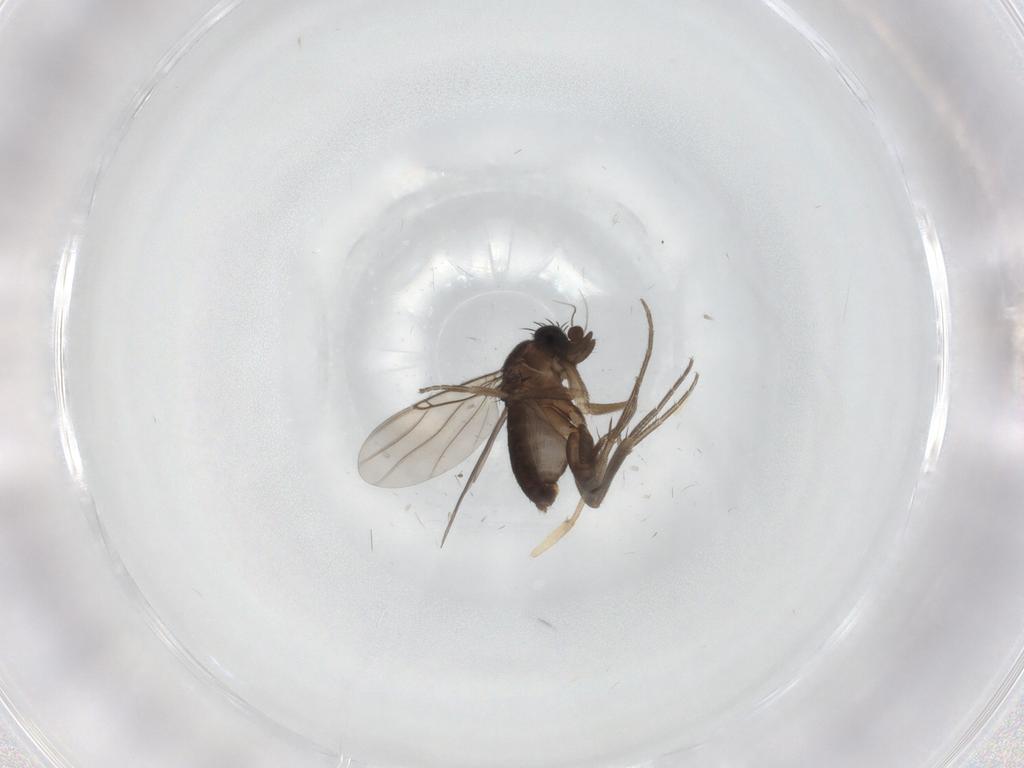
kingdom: Animalia
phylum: Arthropoda
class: Insecta
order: Diptera
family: Phoridae
